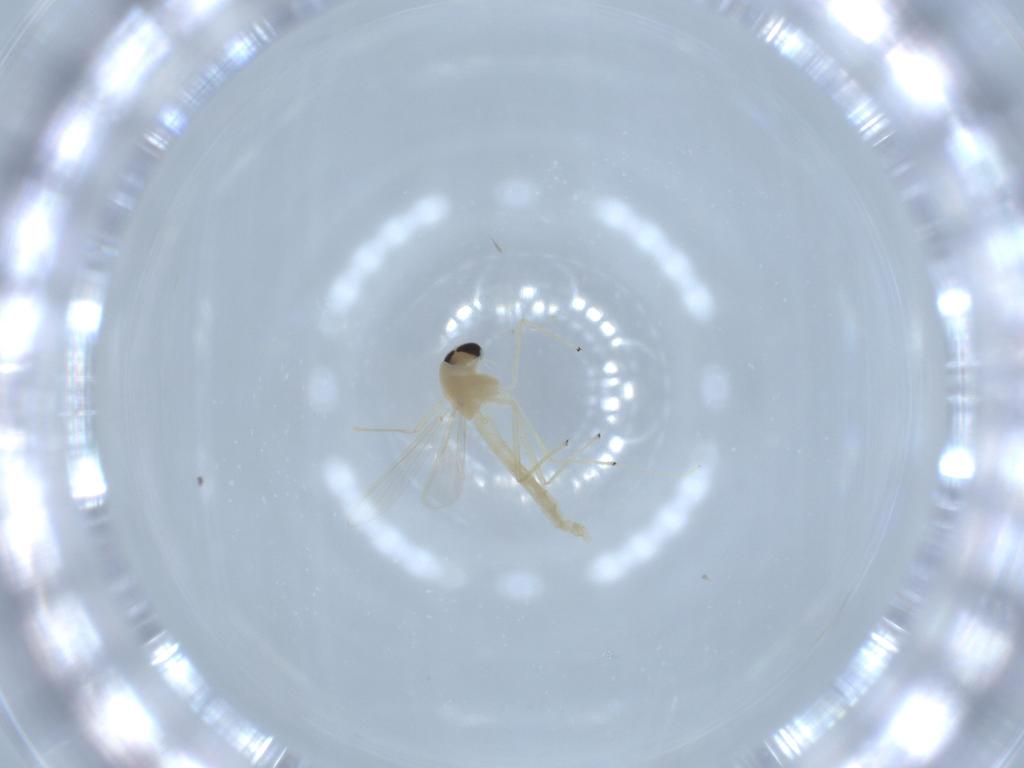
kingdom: Animalia
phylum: Arthropoda
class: Insecta
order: Diptera
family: Chironomidae
